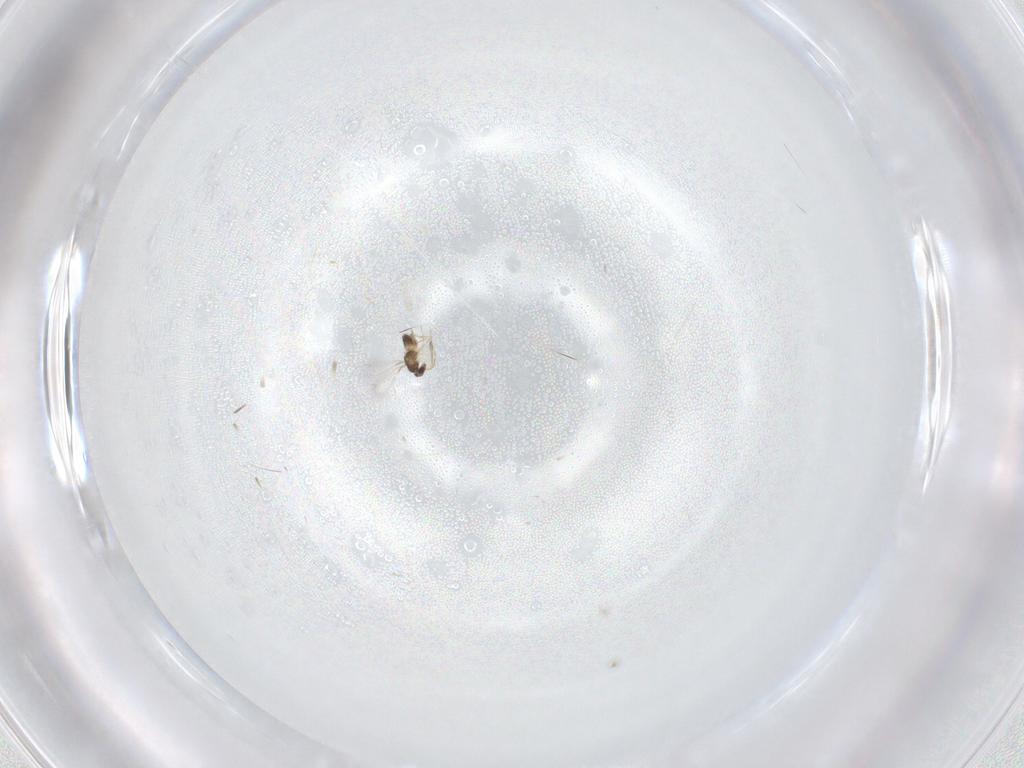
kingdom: Animalia
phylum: Arthropoda
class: Insecta
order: Hymenoptera
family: Mymaridae
